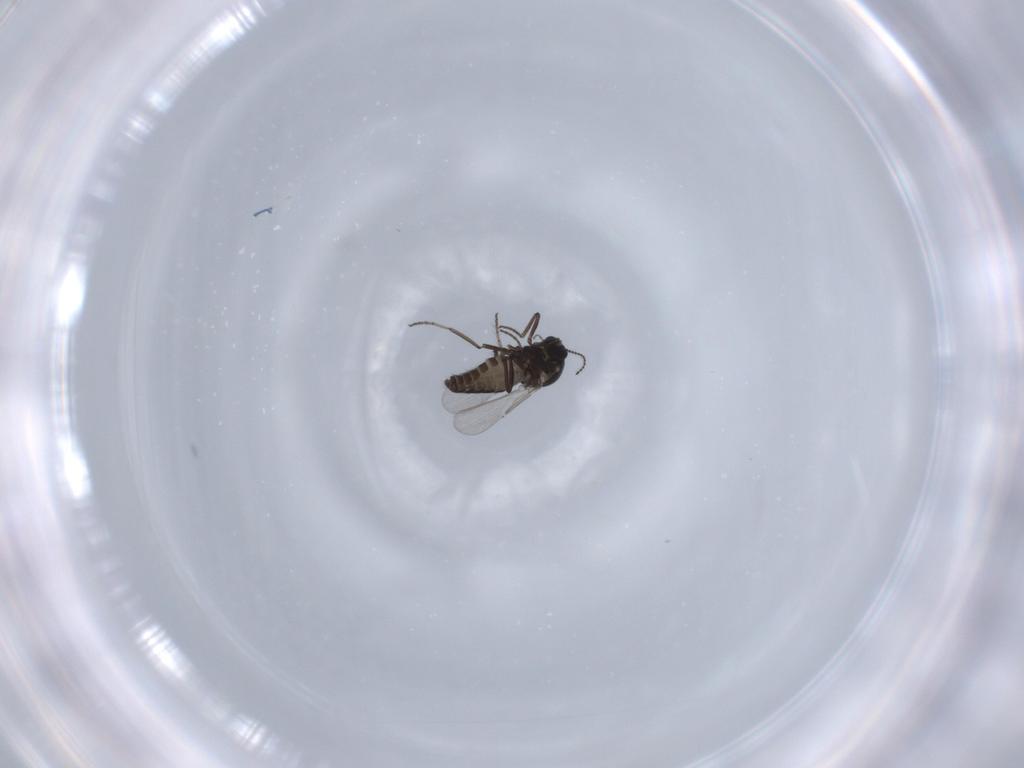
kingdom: Animalia
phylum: Arthropoda
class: Insecta
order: Diptera
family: Ceratopogonidae
